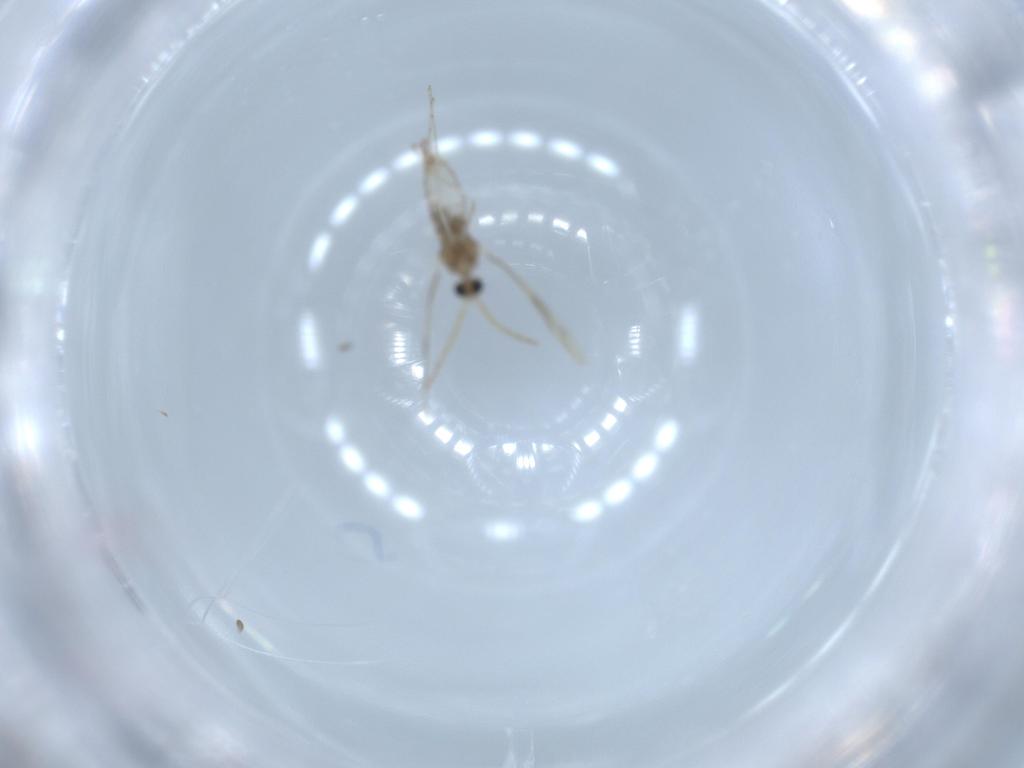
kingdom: Animalia
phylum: Arthropoda
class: Insecta
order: Diptera
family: Cecidomyiidae
